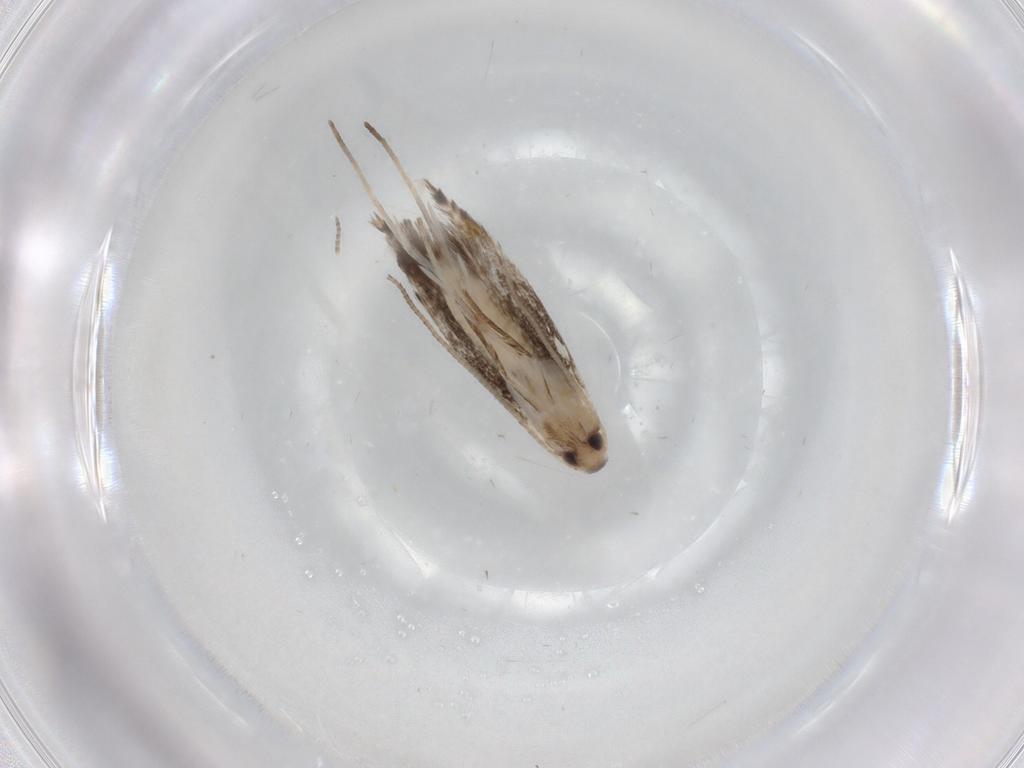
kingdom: Animalia
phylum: Arthropoda
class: Insecta
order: Lepidoptera
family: Gracillariidae
